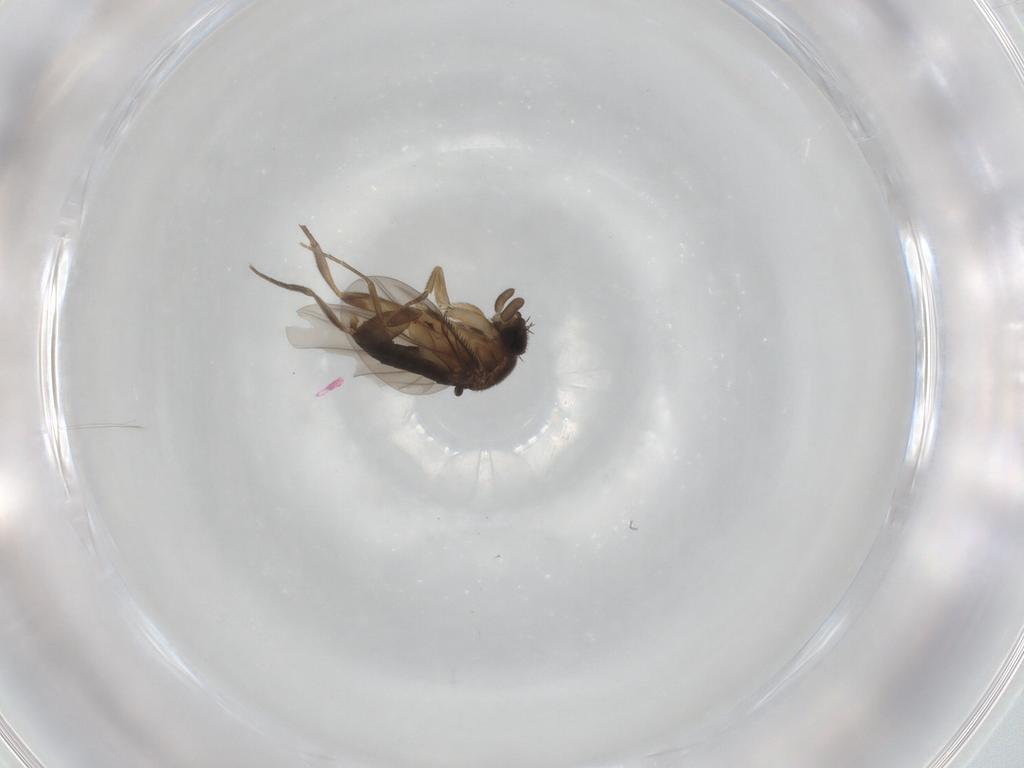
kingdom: Animalia
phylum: Arthropoda
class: Insecta
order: Diptera
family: Phoridae
